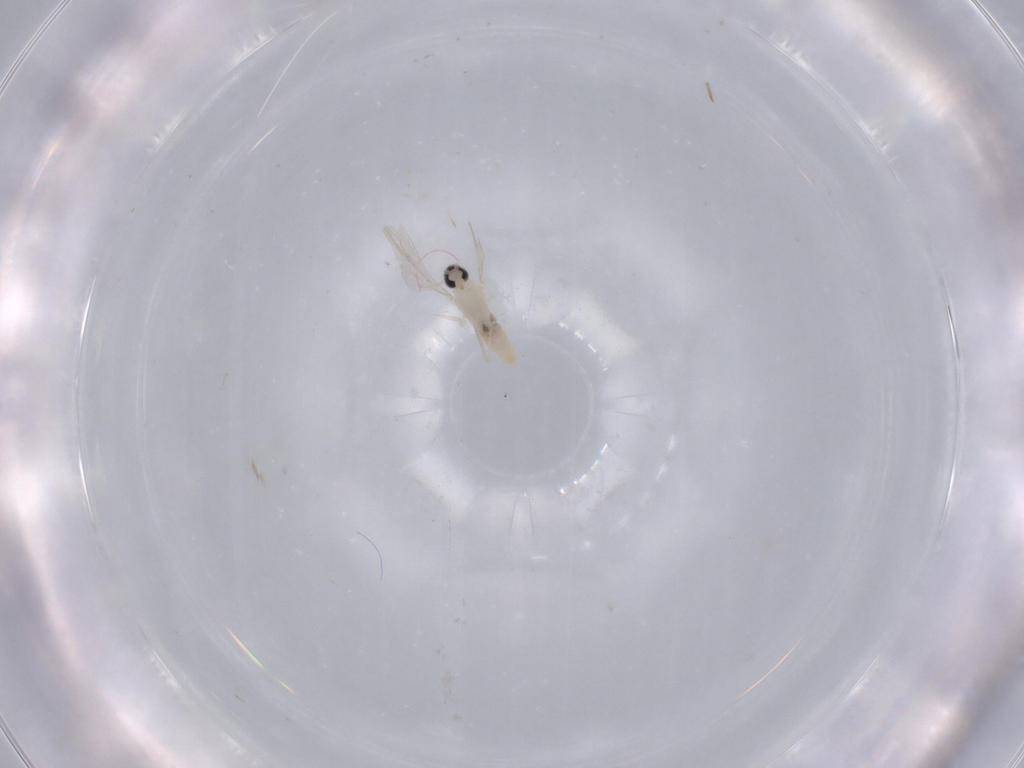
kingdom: Animalia
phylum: Arthropoda
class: Insecta
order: Diptera
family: Cecidomyiidae
